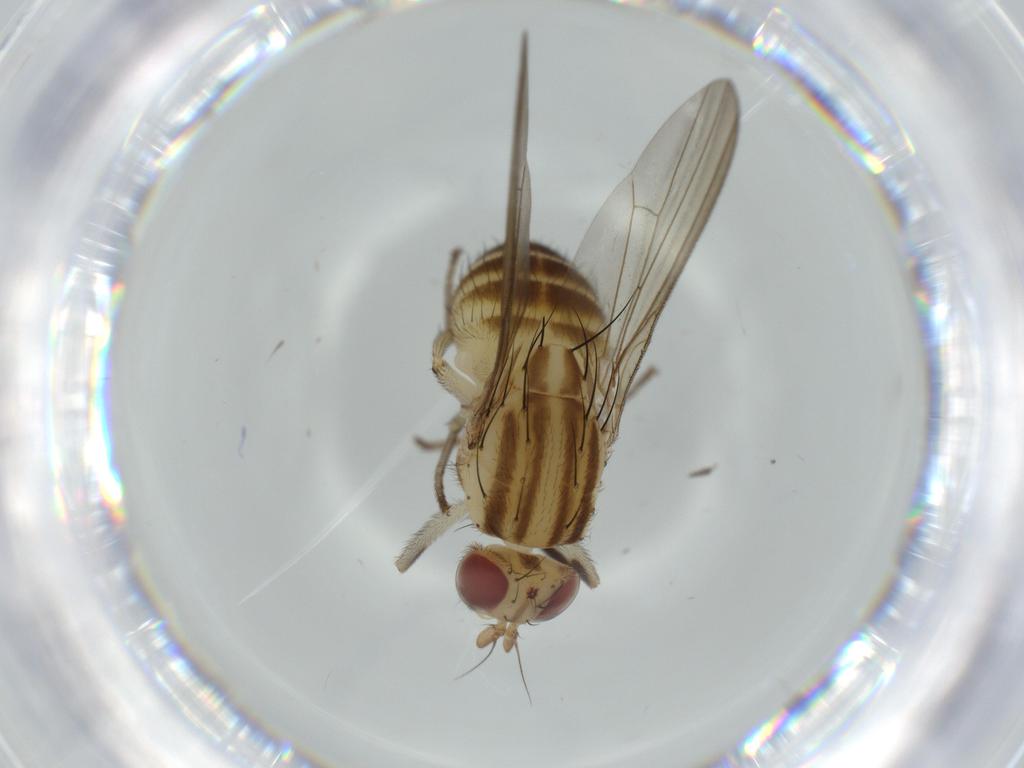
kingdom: Animalia
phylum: Arthropoda
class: Insecta
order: Diptera
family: Lauxaniidae
